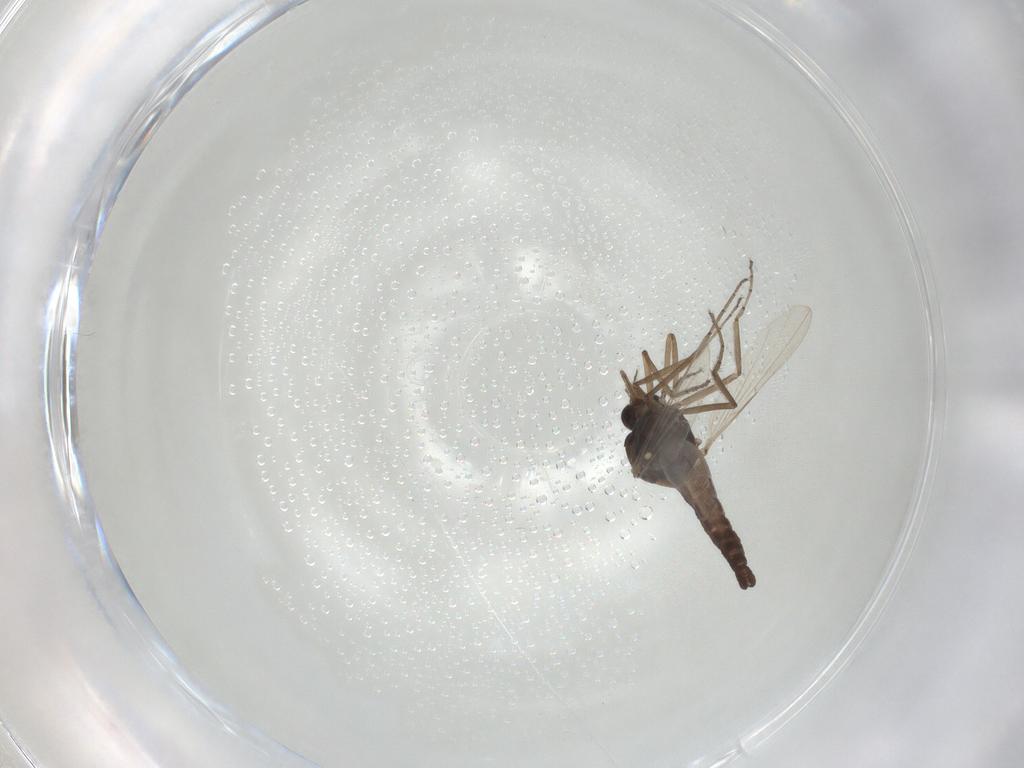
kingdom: Animalia
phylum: Arthropoda
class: Insecta
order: Diptera
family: Ceratopogonidae
